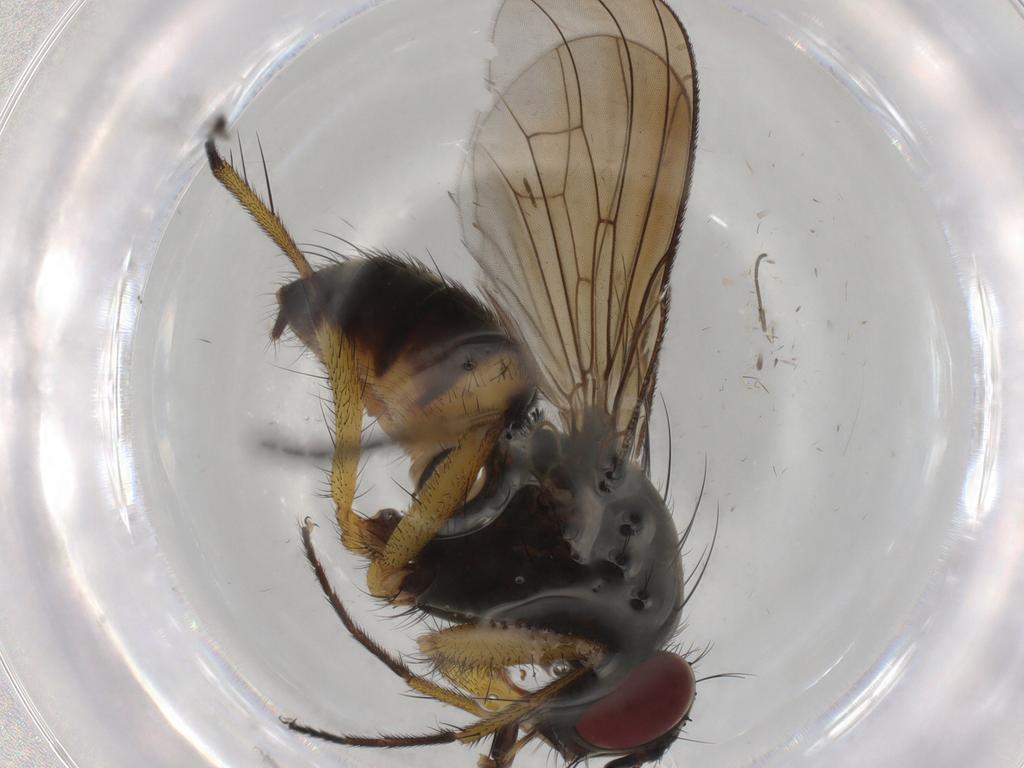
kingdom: Animalia
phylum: Arthropoda
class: Insecta
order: Diptera
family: Muscidae
